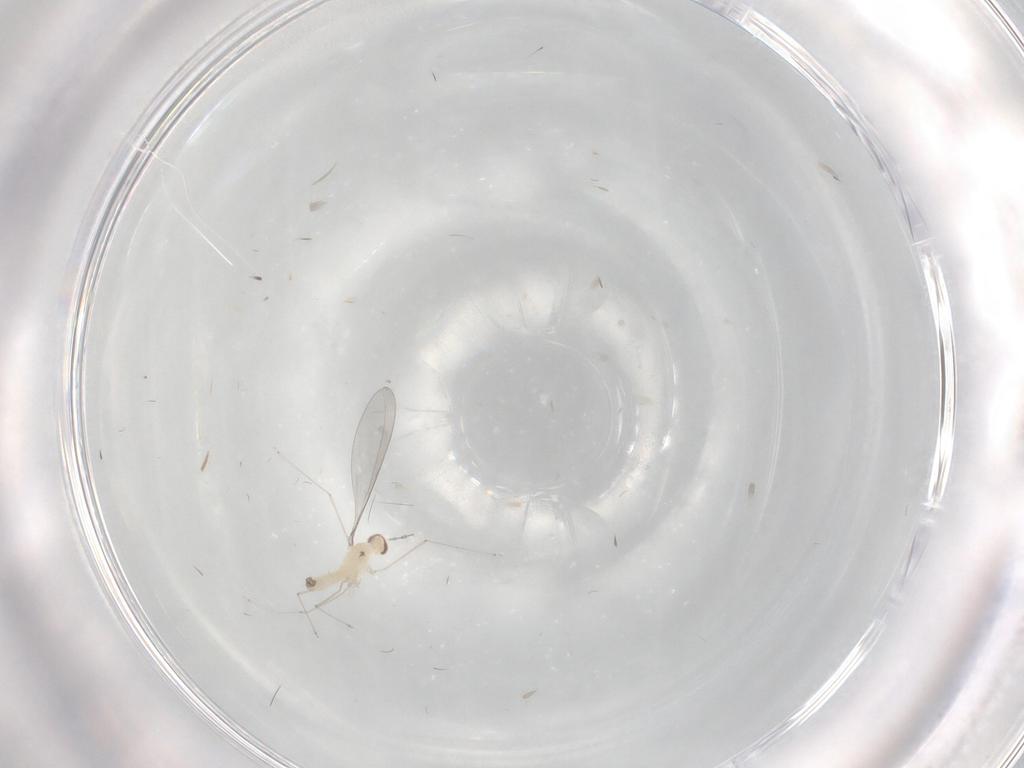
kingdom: Animalia
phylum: Arthropoda
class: Insecta
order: Diptera
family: Cecidomyiidae
